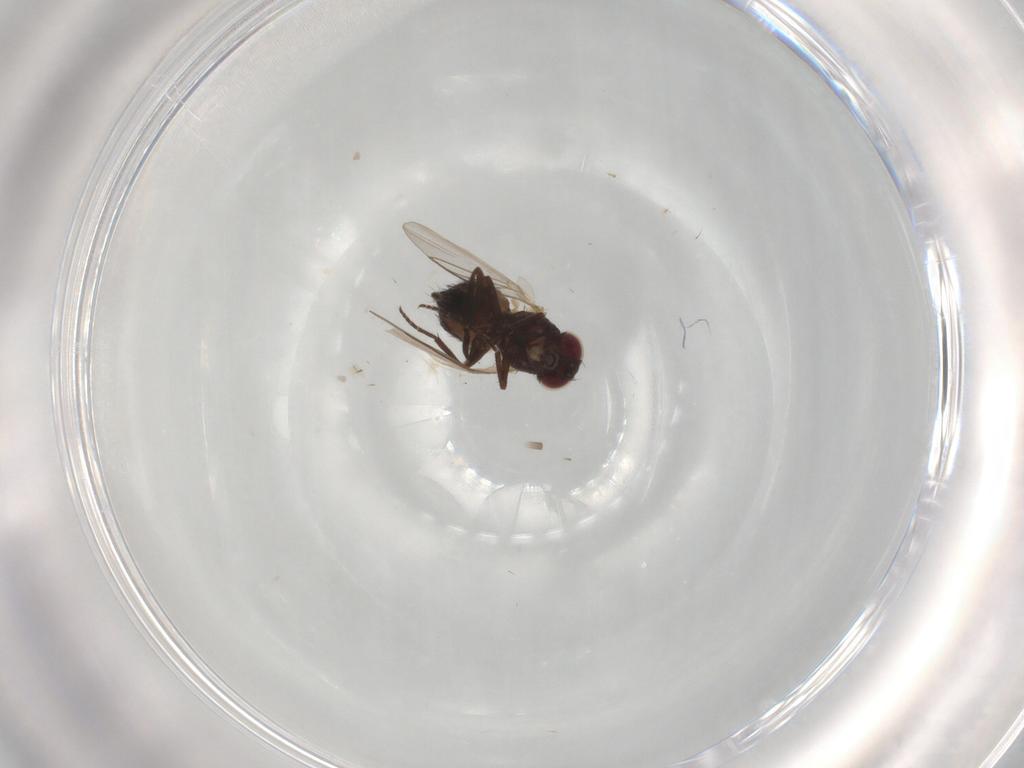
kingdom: Animalia
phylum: Arthropoda
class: Insecta
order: Diptera
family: Agromyzidae
